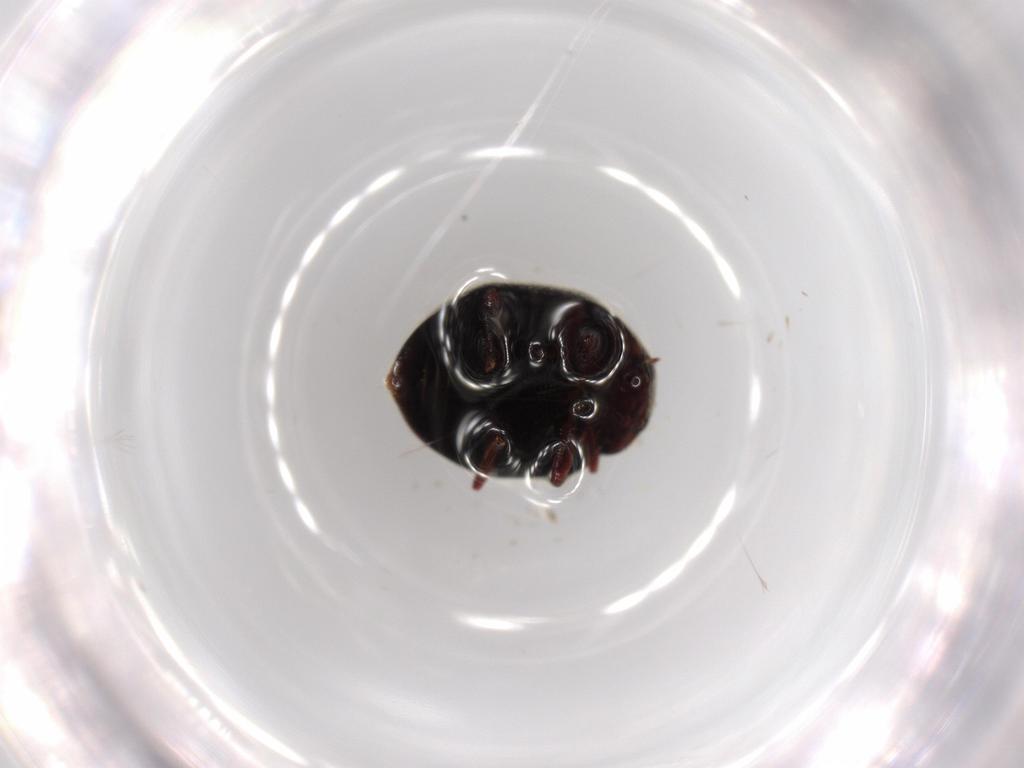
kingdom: Animalia
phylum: Arthropoda
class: Insecta
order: Coleoptera
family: Coccinellidae
